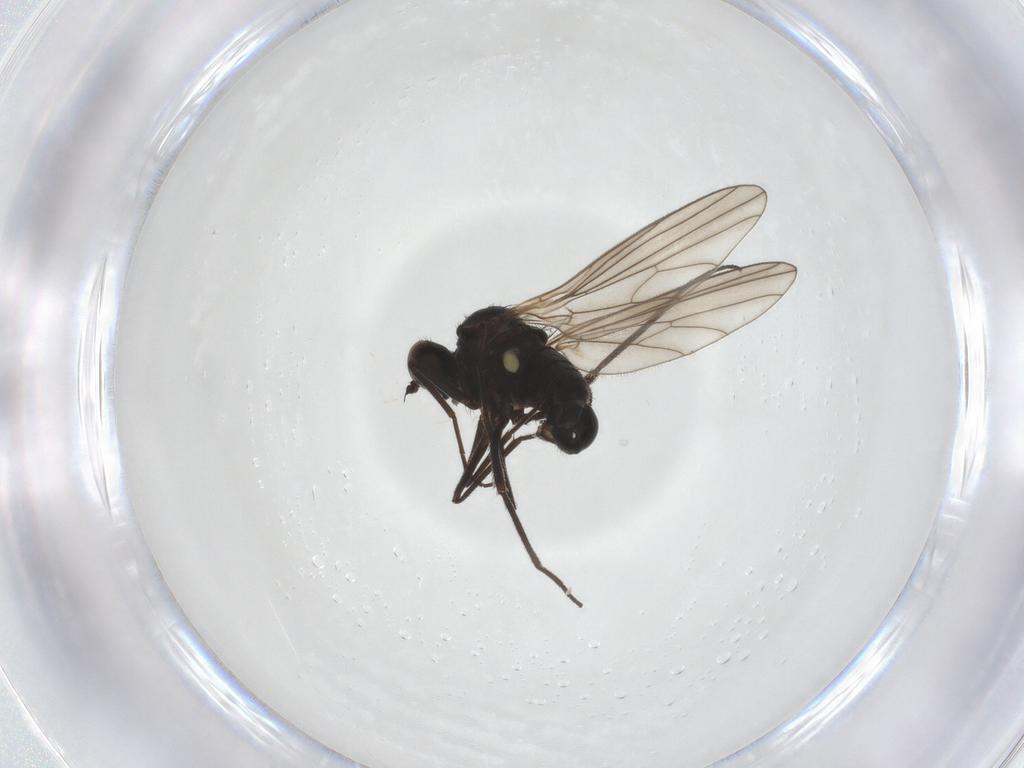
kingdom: Animalia
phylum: Arthropoda
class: Insecta
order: Diptera
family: Dolichopodidae
